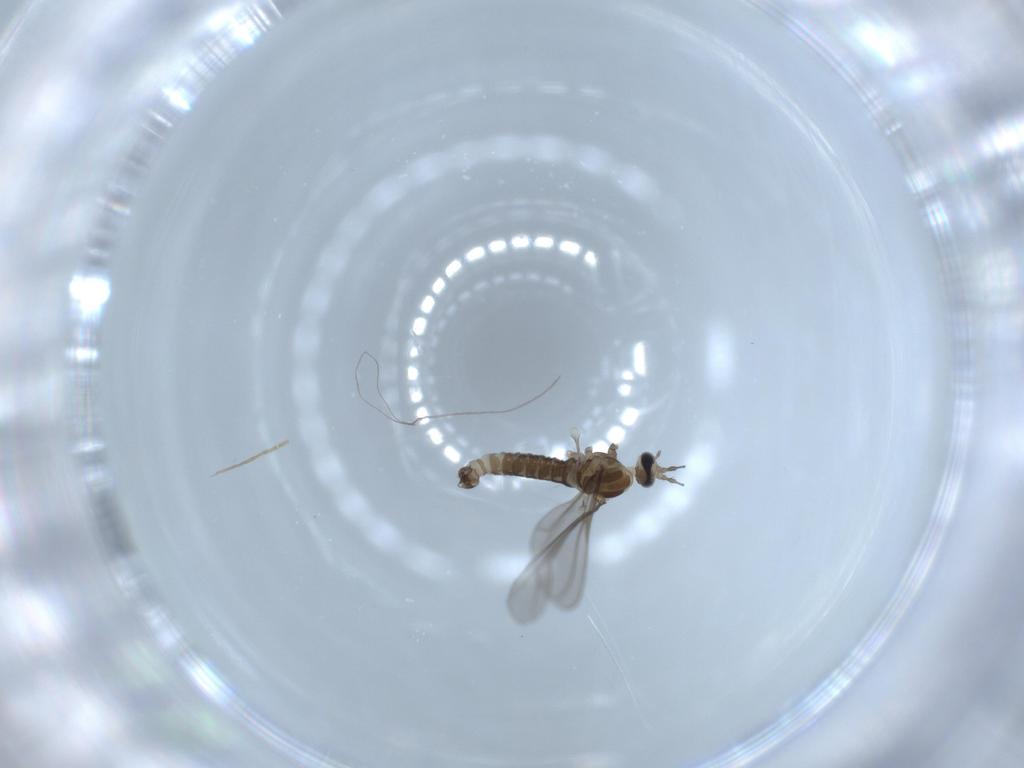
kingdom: Animalia
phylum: Arthropoda
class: Insecta
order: Diptera
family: Cecidomyiidae
